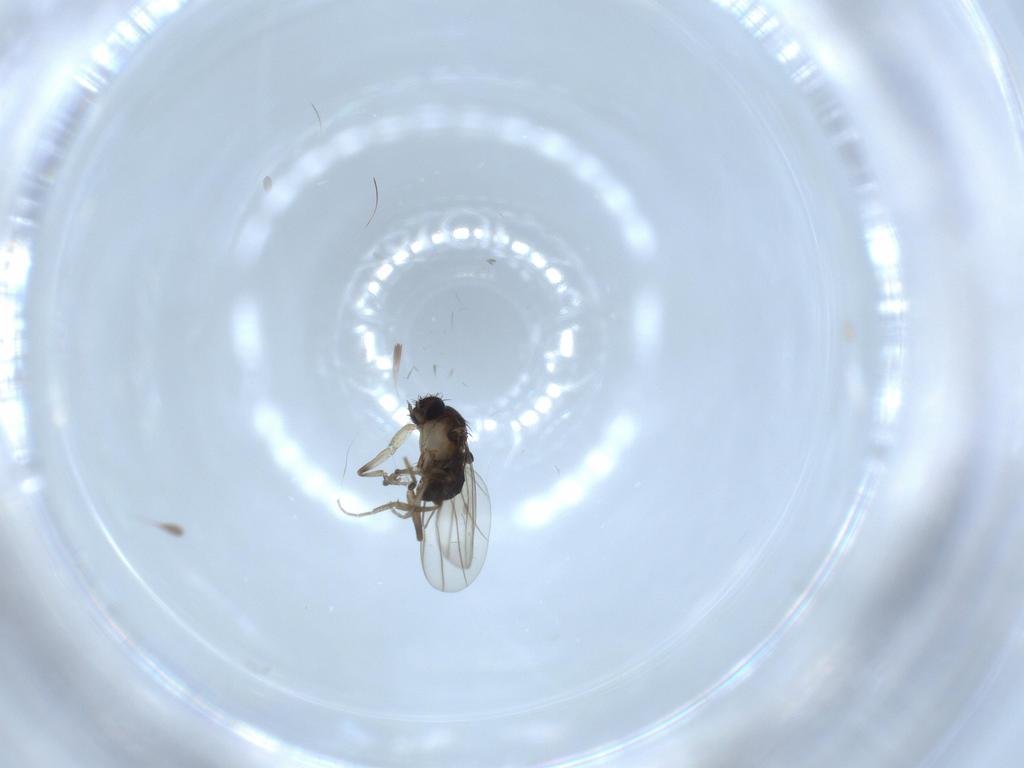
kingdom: Animalia
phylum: Arthropoda
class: Insecta
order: Diptera
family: Phoridae
